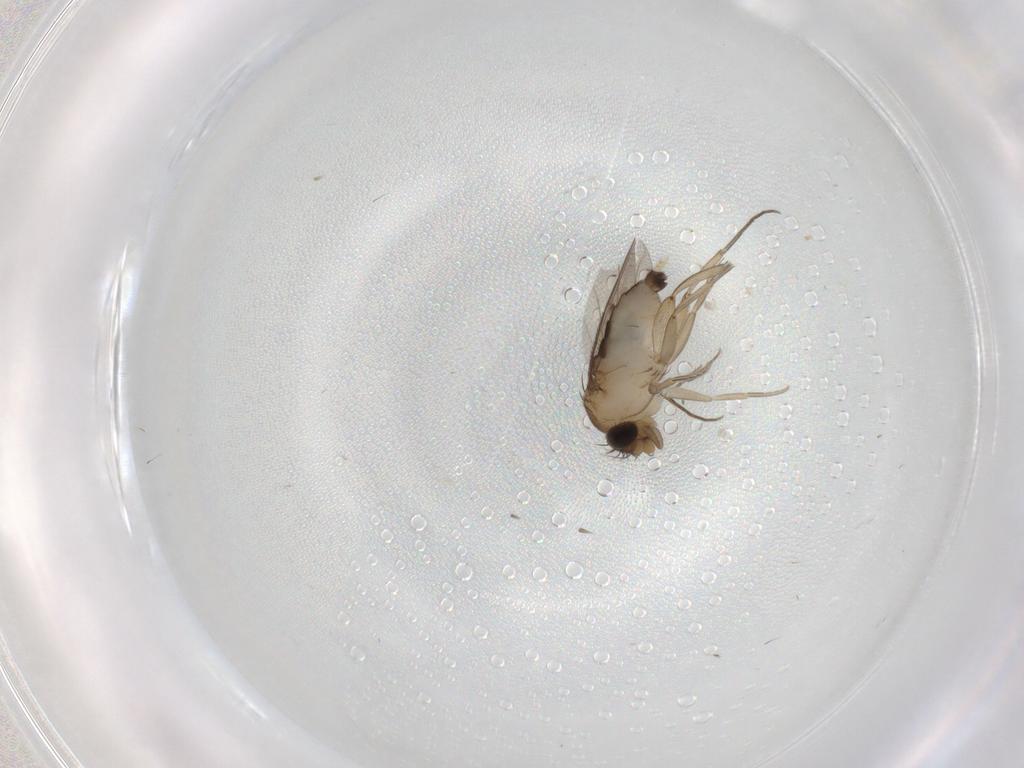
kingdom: Animalia
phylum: Arthropoda
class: Insecta
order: Diptera
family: Phoridae
